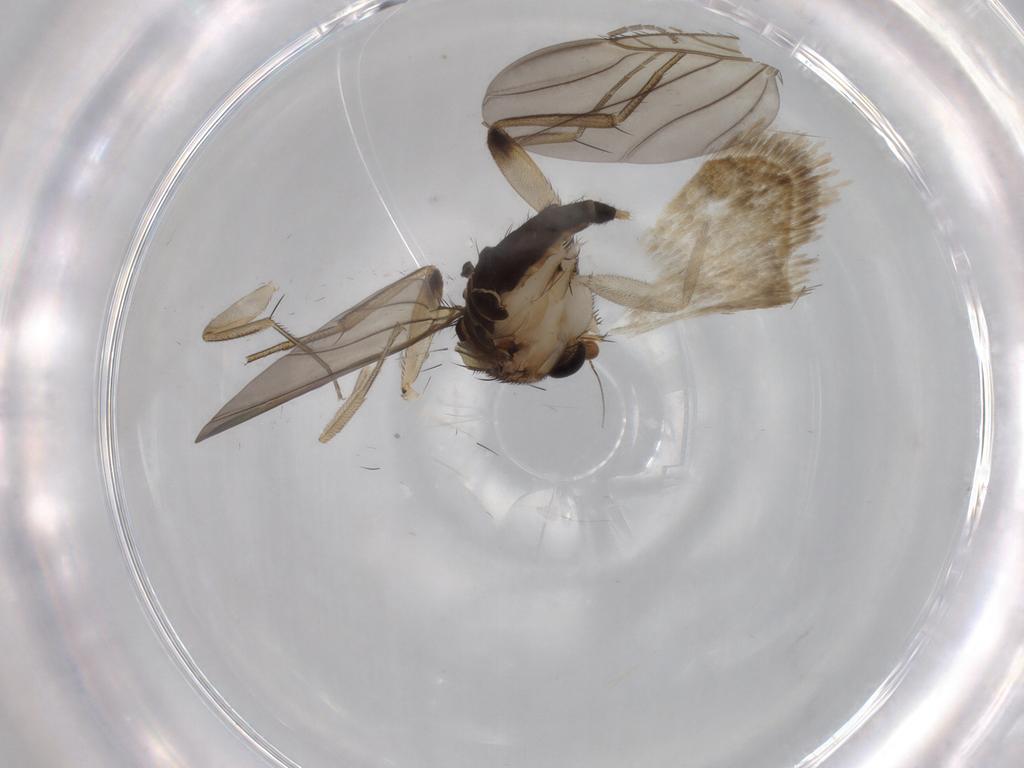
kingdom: Animalia
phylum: Arthropoda
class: Insecta
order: Diptera
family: Phoridae
